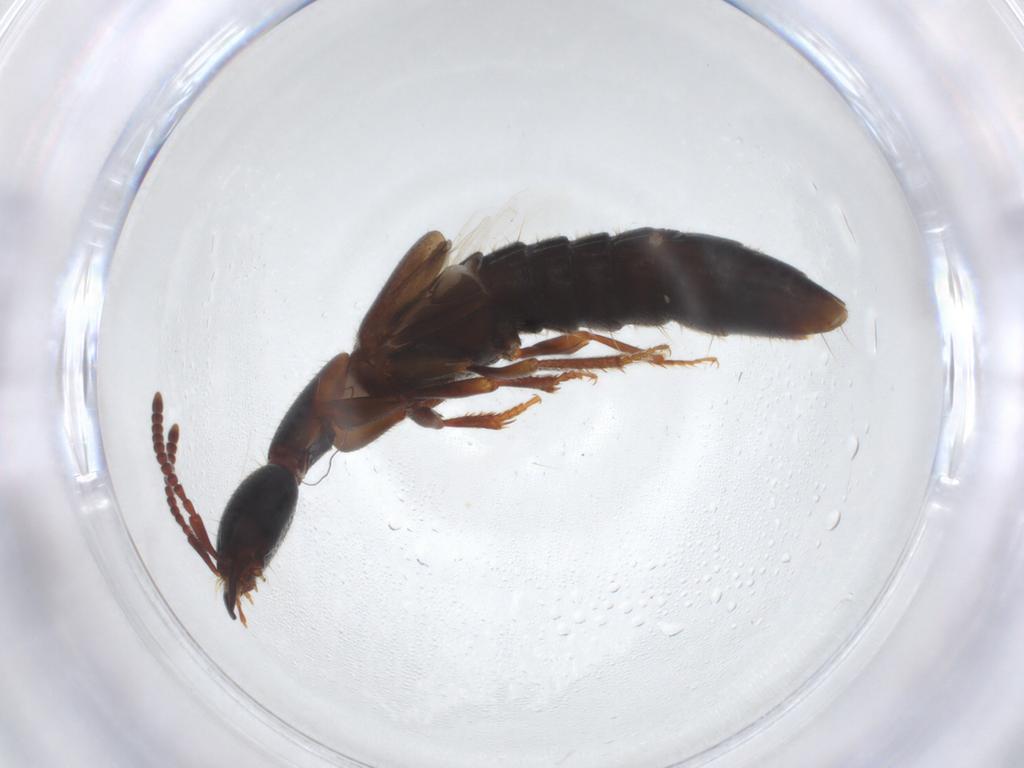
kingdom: Animalia
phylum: Arthropoda
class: Insecta
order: Coleoptera
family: Staphylinidae
